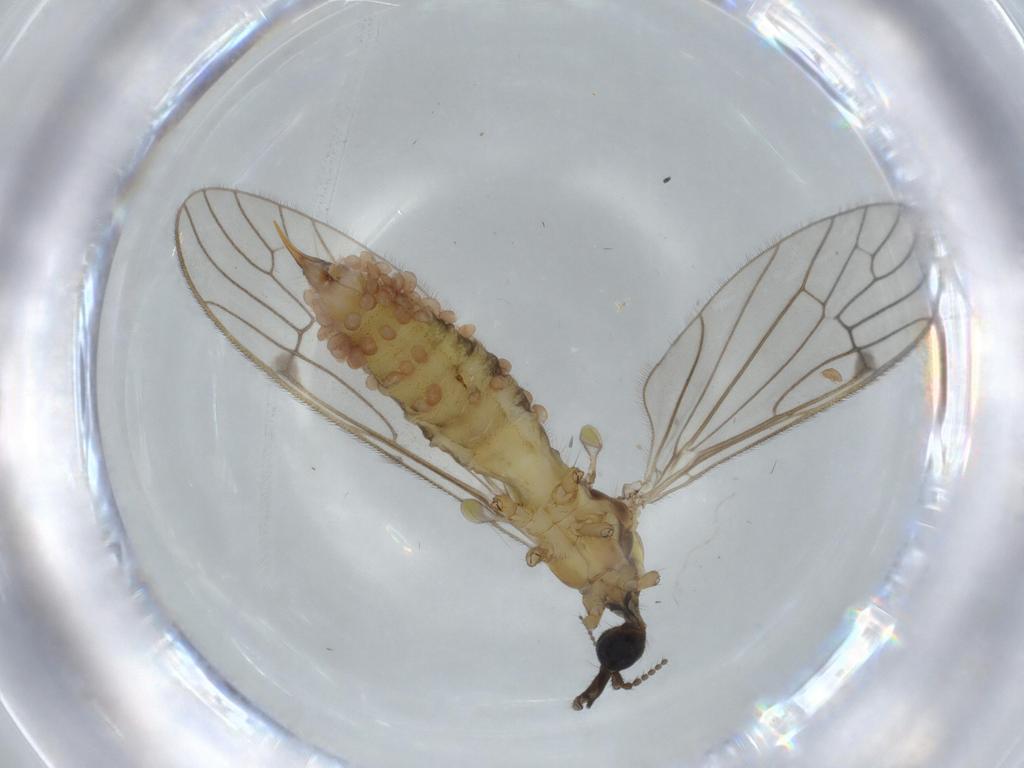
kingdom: Animalia
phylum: Arthropoda
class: Insecta
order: Diptera
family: Sciaridae
